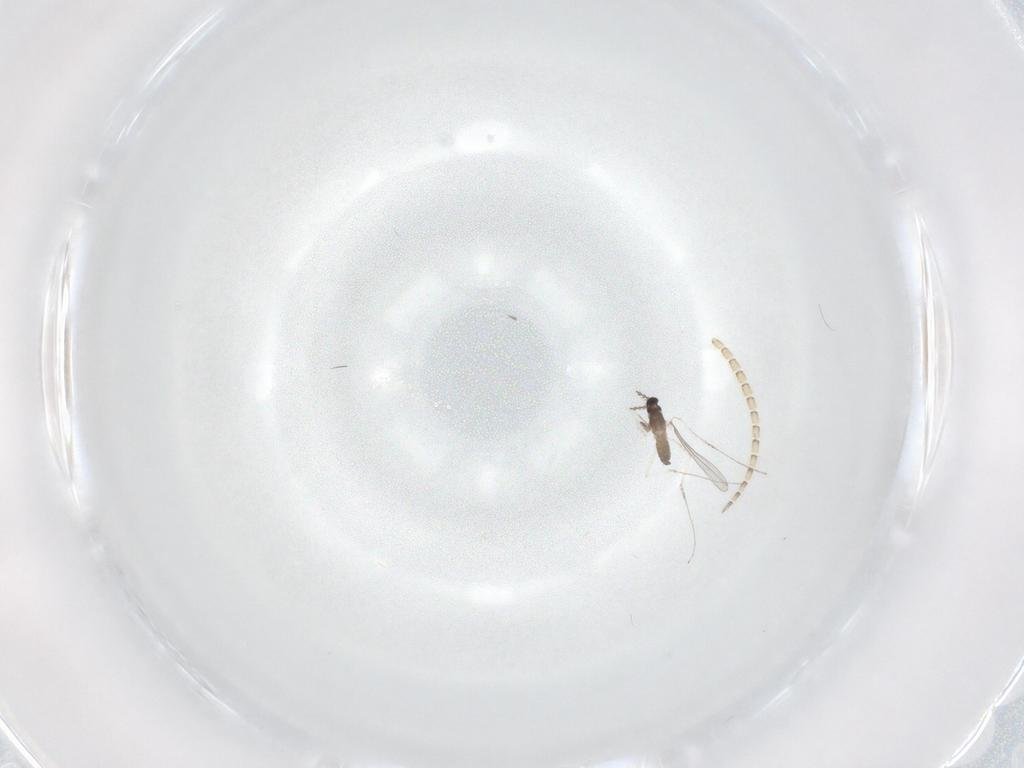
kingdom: Animalia
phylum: Arthropoda
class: Insecta
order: Diptera
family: Cecidomyiidae
